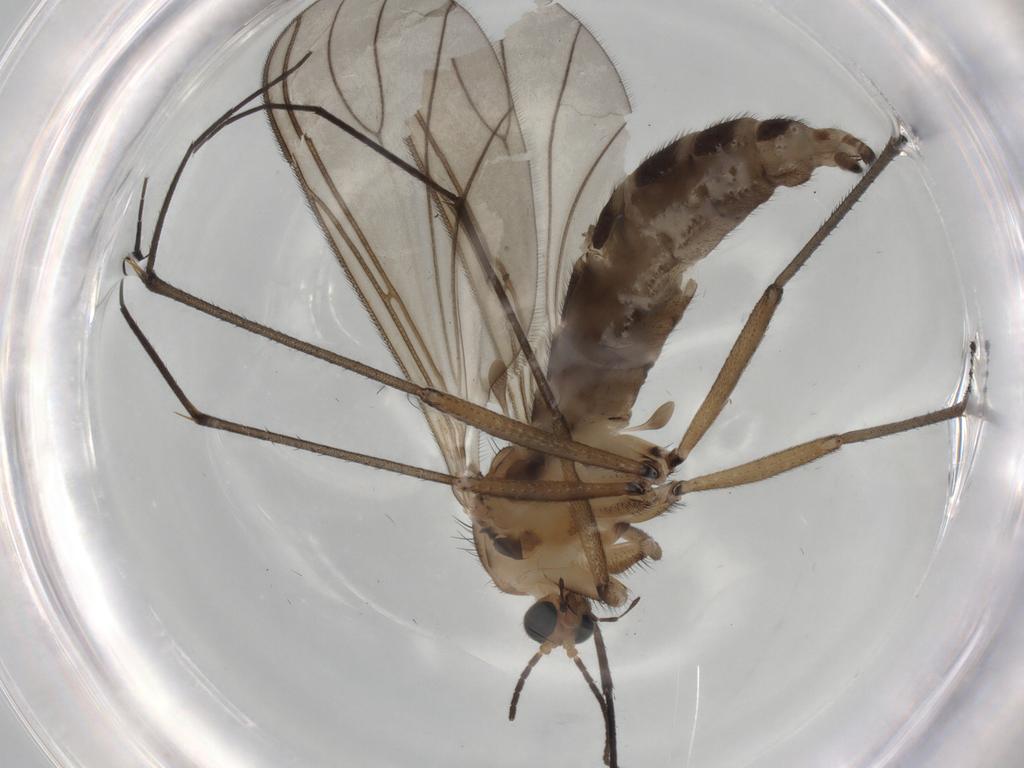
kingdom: Animalia
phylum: Arthropoda
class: Insecta
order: Diptera
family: Sciaridae
